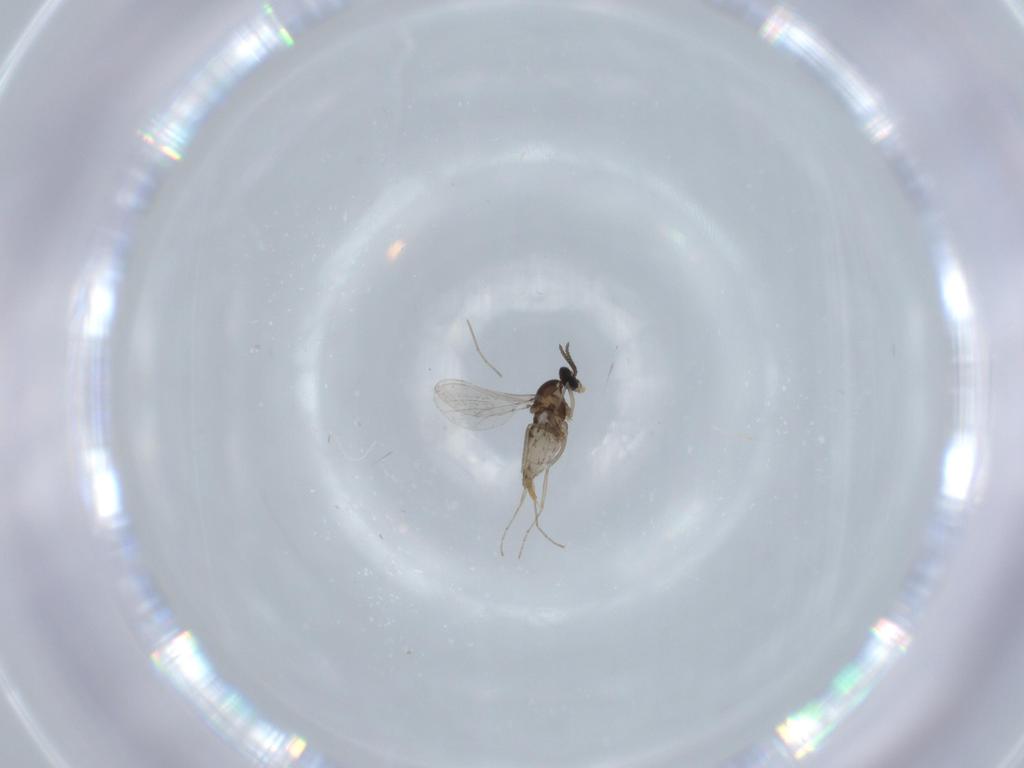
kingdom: Animalia
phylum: Arthropoda
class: Insecta
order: Diptera
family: Cecidomyiidae
